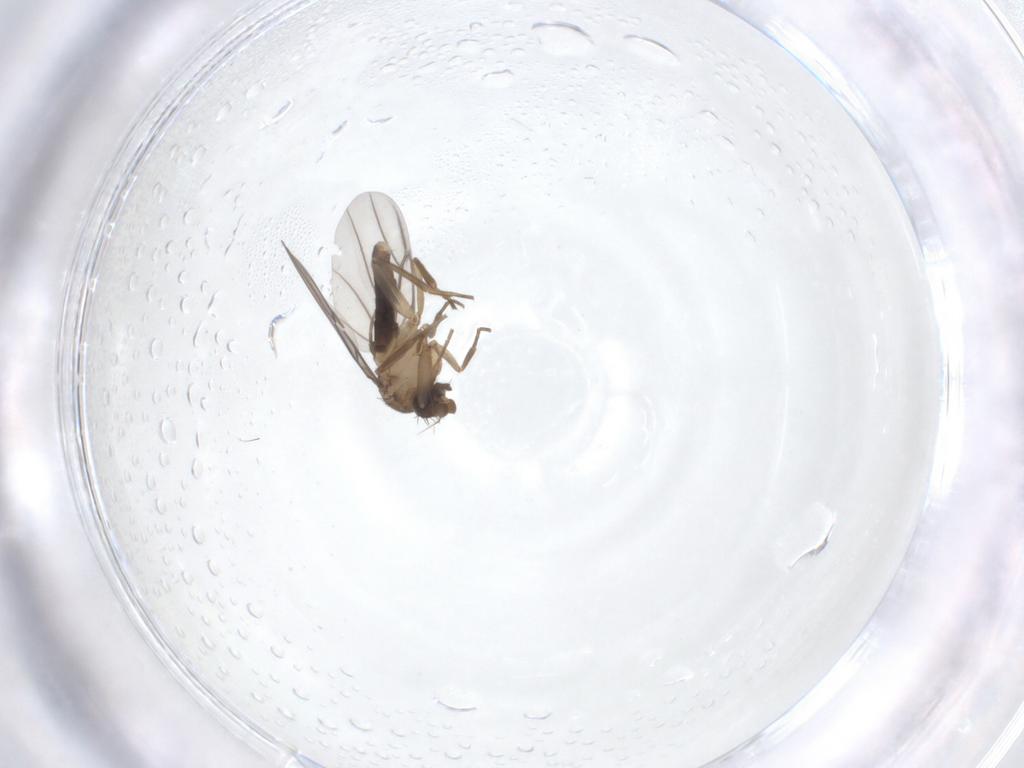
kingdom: Animalia
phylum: Arthropoda
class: Insecta
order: Diptera
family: Phoridae
